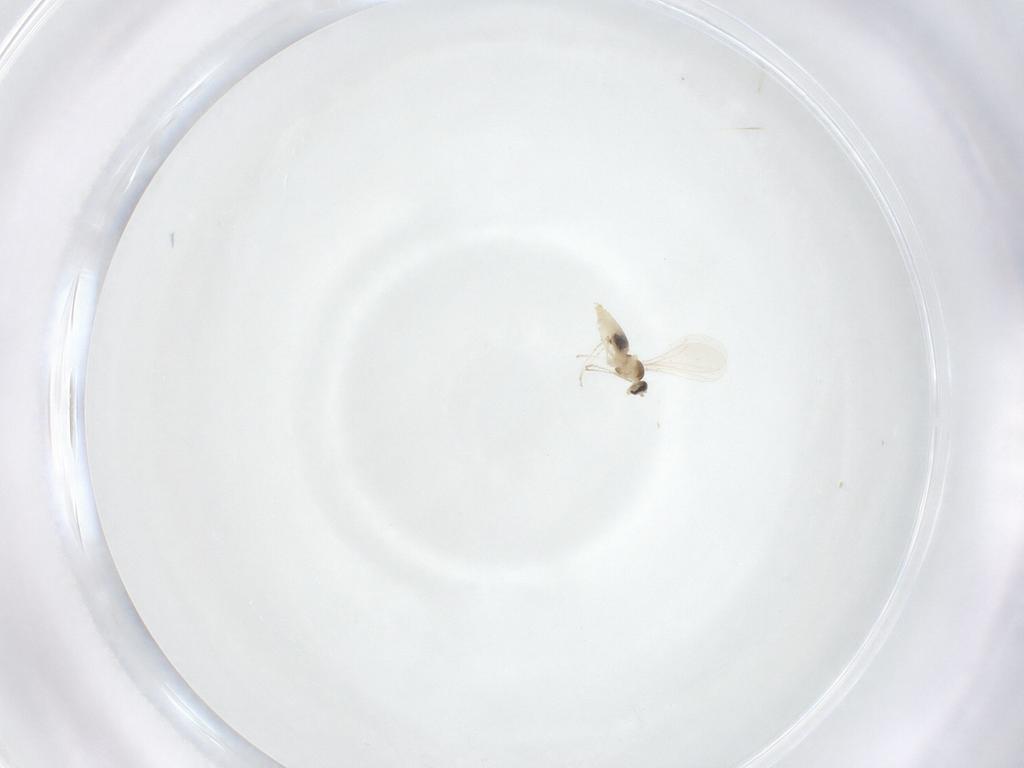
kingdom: Animalia
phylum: Arthropoda
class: Insecta
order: Diptera
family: Cecidomyiidae
